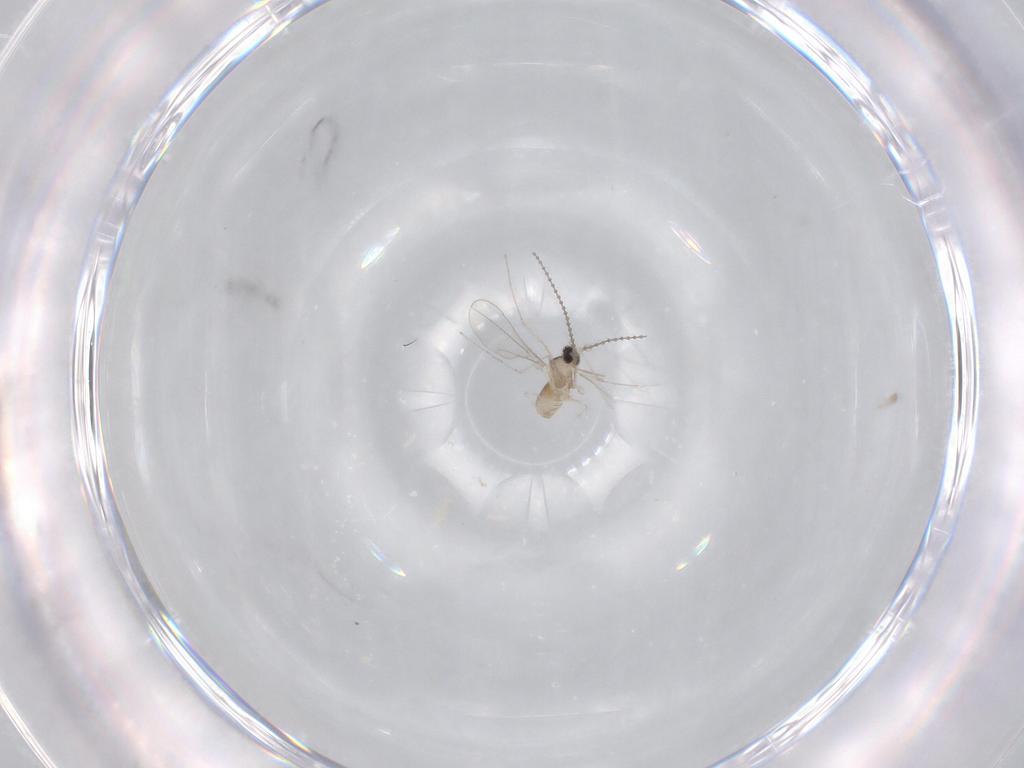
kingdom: Animalia
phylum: Arthropoda
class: Insecta
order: Diptera
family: Cecidomyiidae
